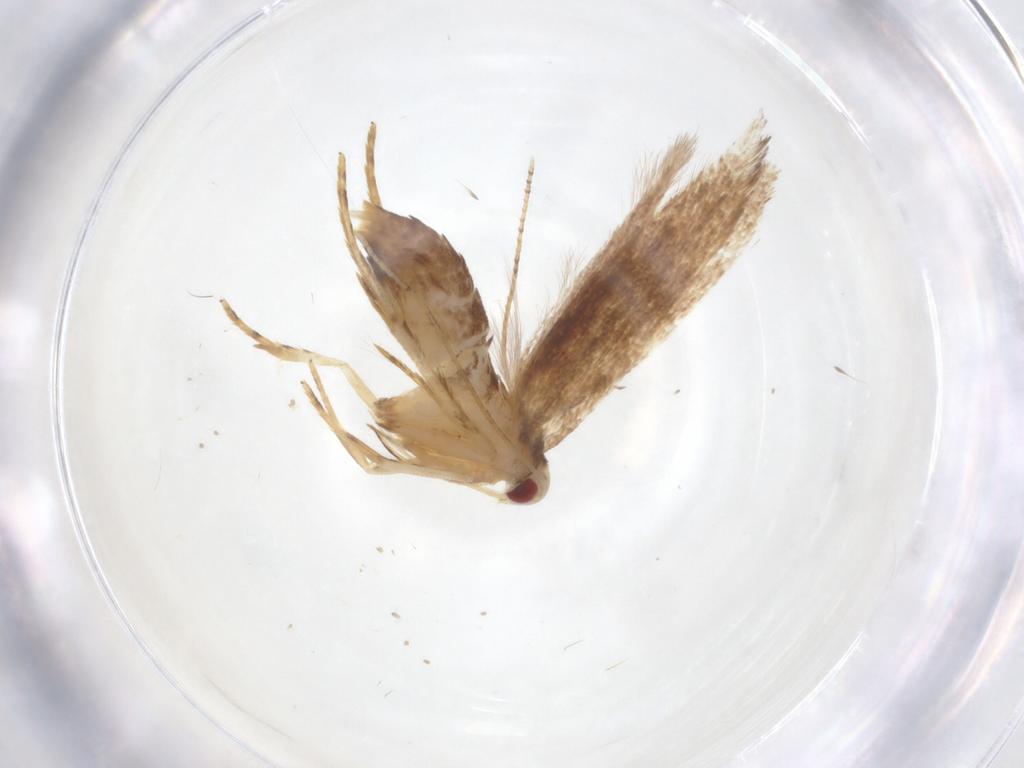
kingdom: Animalia
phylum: Arthropoda
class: Insecta
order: Lepidoptera
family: Cosmopterigidae
